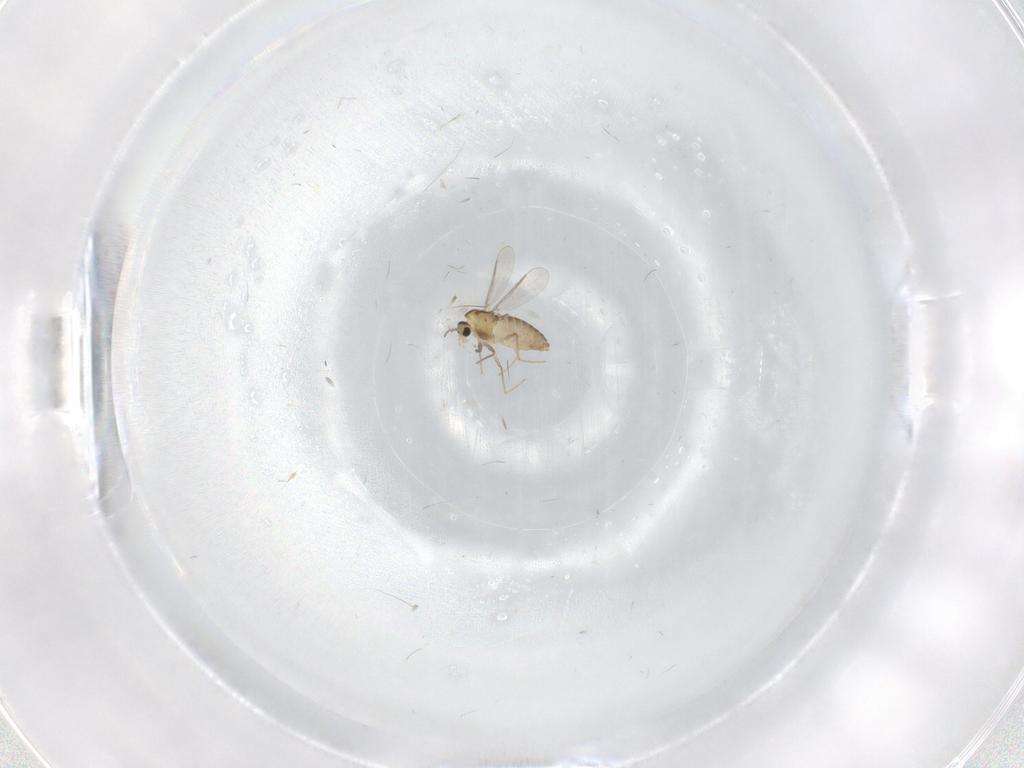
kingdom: Animalia
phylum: Arthropoda
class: Insecta
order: Diptera
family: Chironomidae
